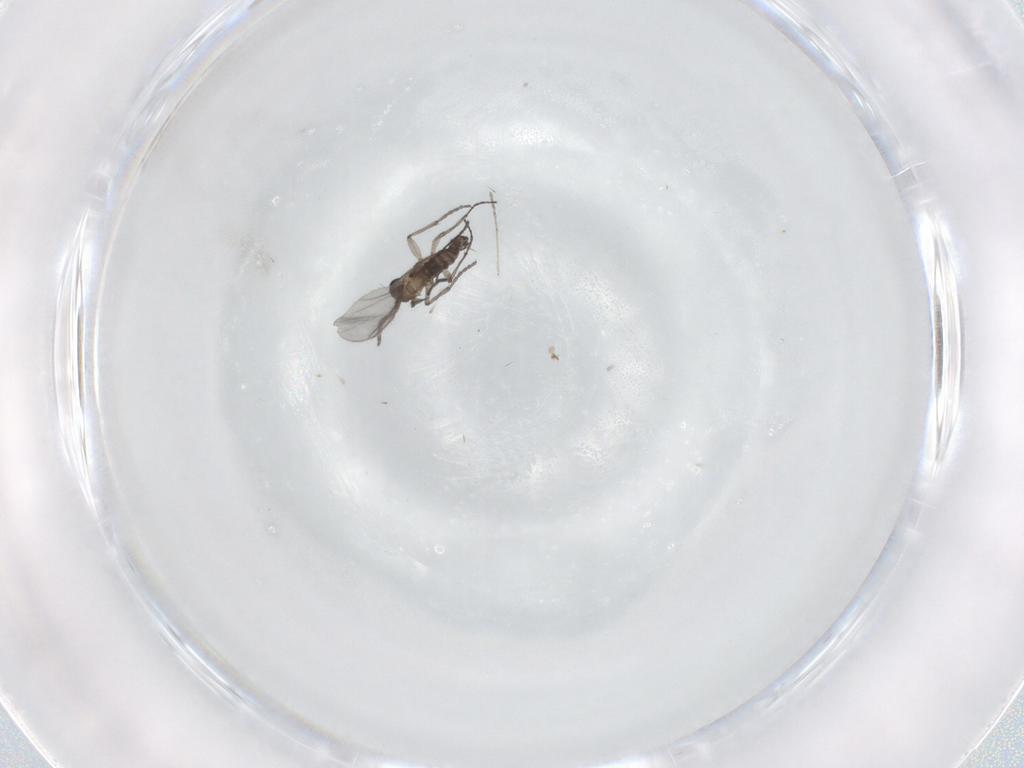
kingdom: Animalia
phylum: Arthropoda
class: Insecta
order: Diptera
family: Sciaridae
